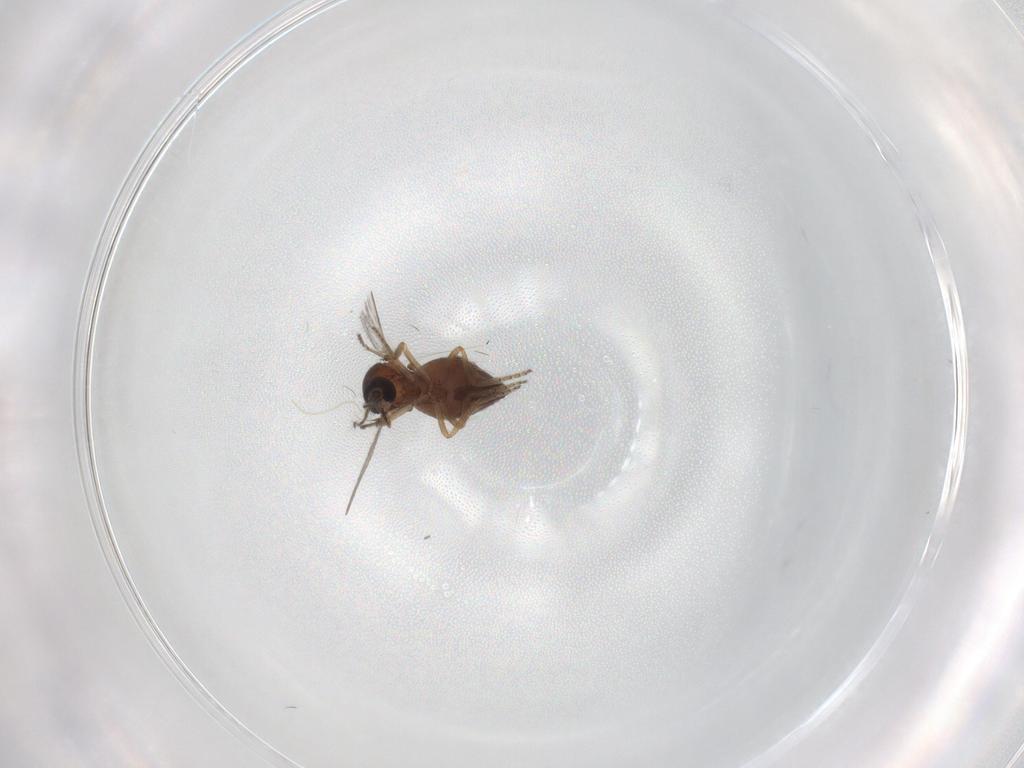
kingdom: Animalia
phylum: Arthropoda
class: Insecta
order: Diptera
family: Ceratopogonidae
